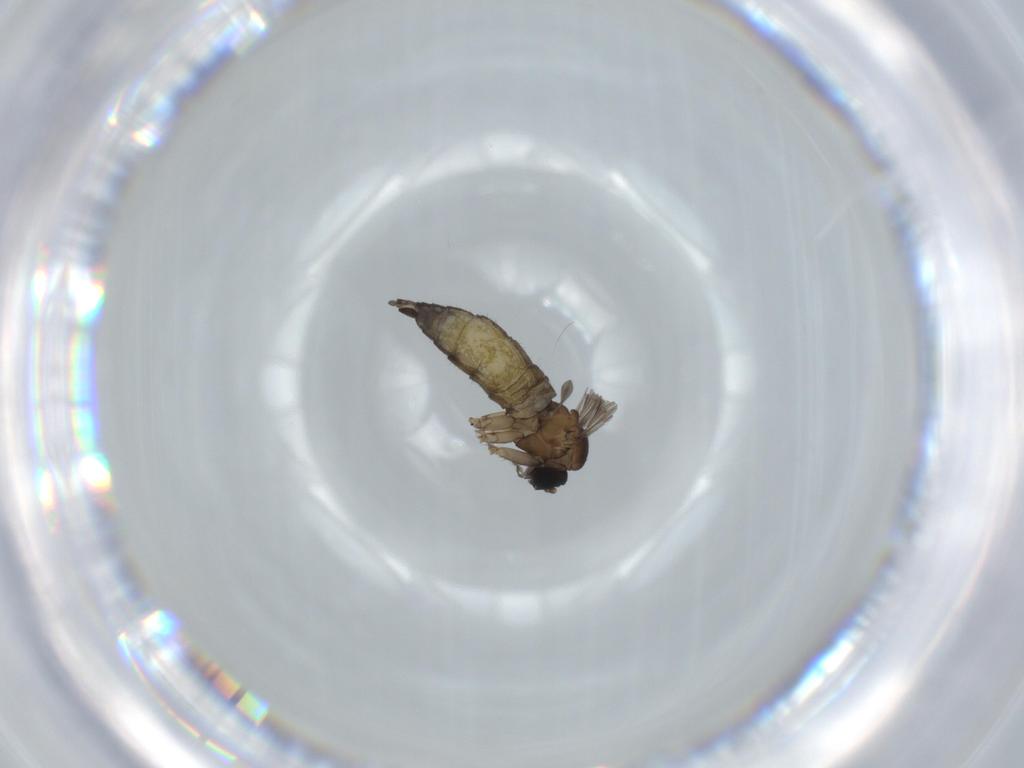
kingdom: Animalia
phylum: Arthropoda
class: Insecta
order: Diptera
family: Sciaridae
